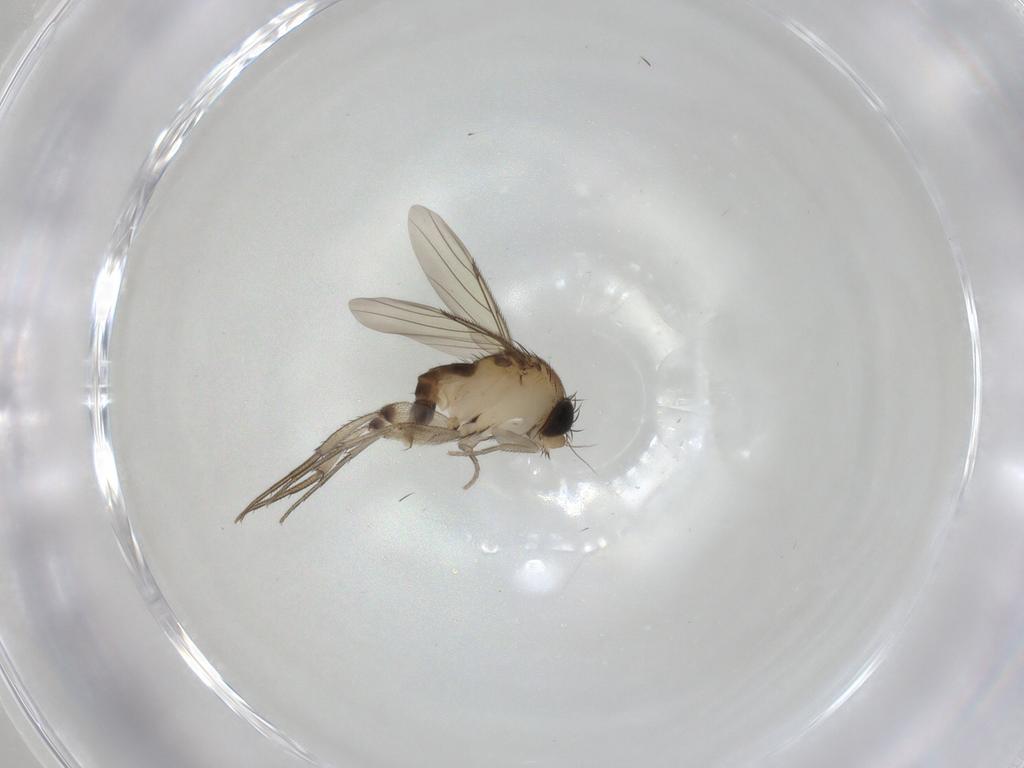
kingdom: Animalia
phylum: Arthropoda
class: Insecta
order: Diptera
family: Phoridae
